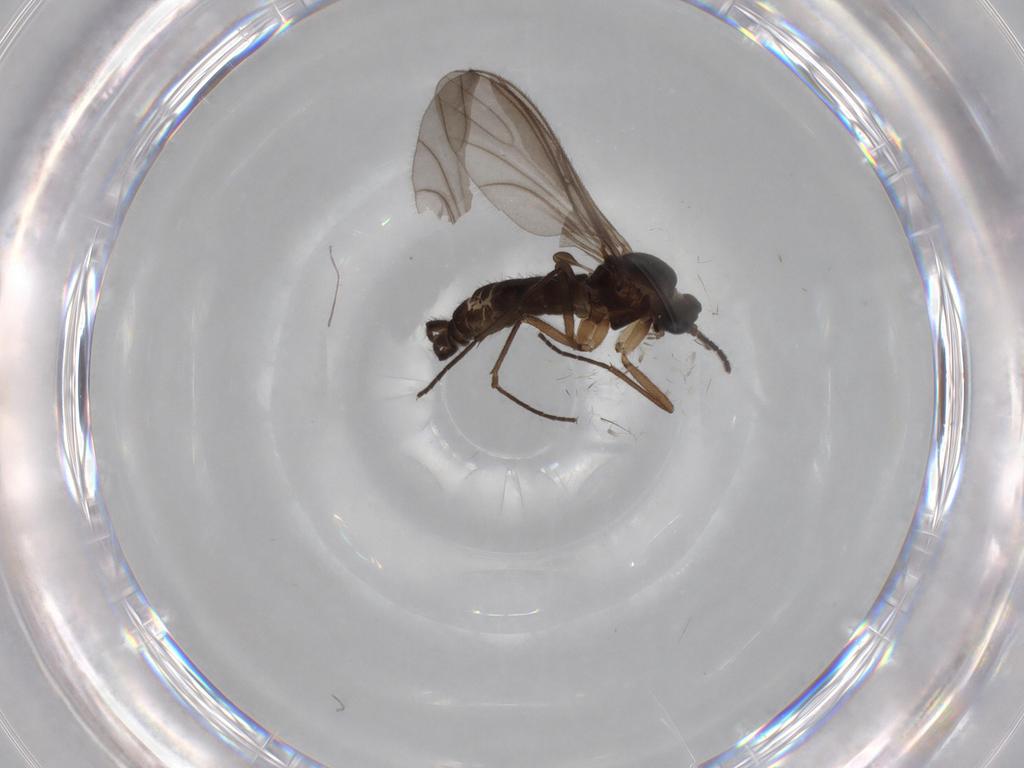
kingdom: Animalia
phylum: Arthropoda
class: Insecta
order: Diptera
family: Sciaridae
